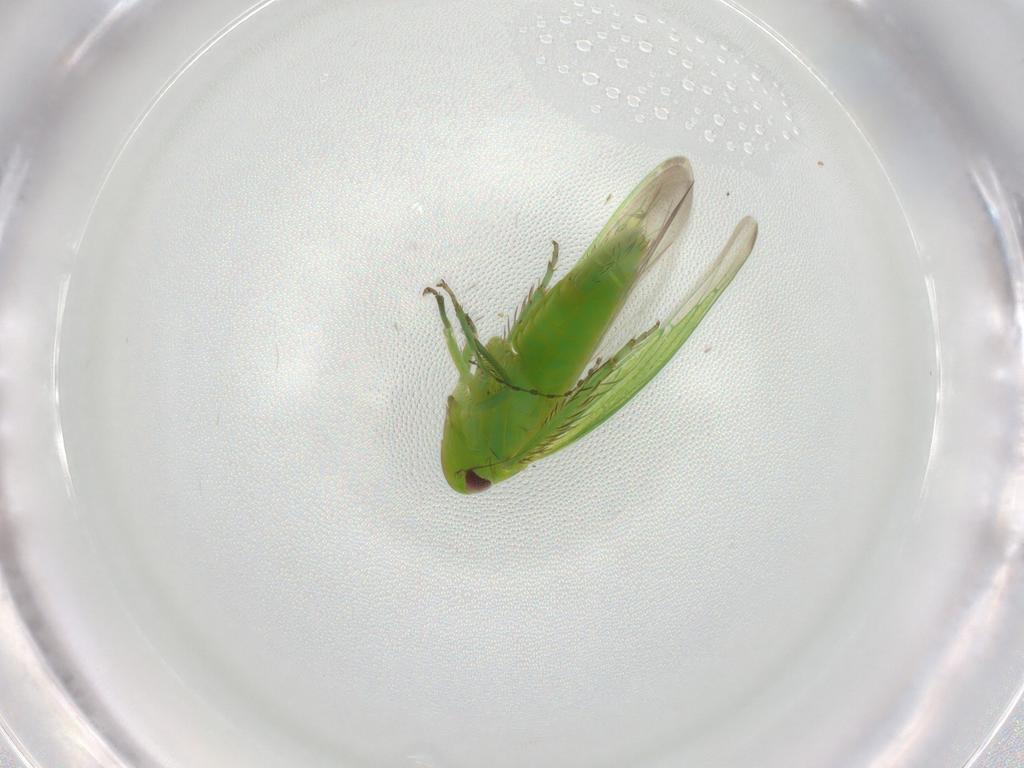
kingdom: Animalia
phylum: Arthropoda
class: Insecta
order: Hemiptera
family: Cicadellidae
